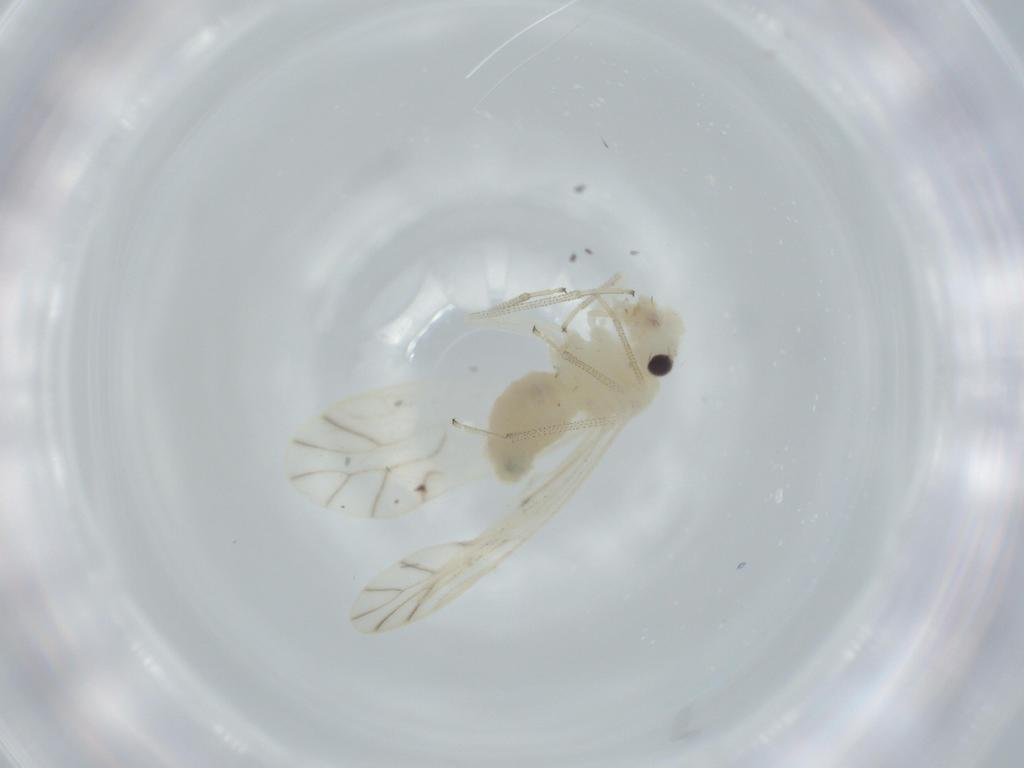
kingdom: Animalia
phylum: Arthropoda
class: Insecta
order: Psocodea
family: Caeciliusidae
